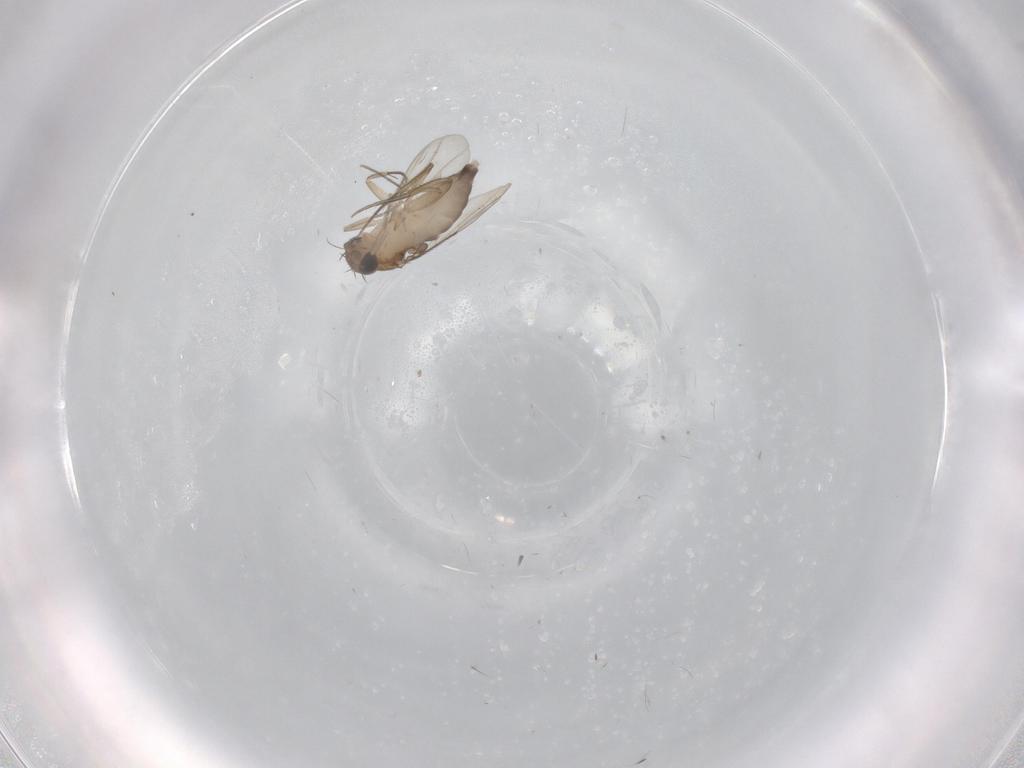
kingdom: Animalia
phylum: Arthropoda
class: Insecta
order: Diptera
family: Phoridae
